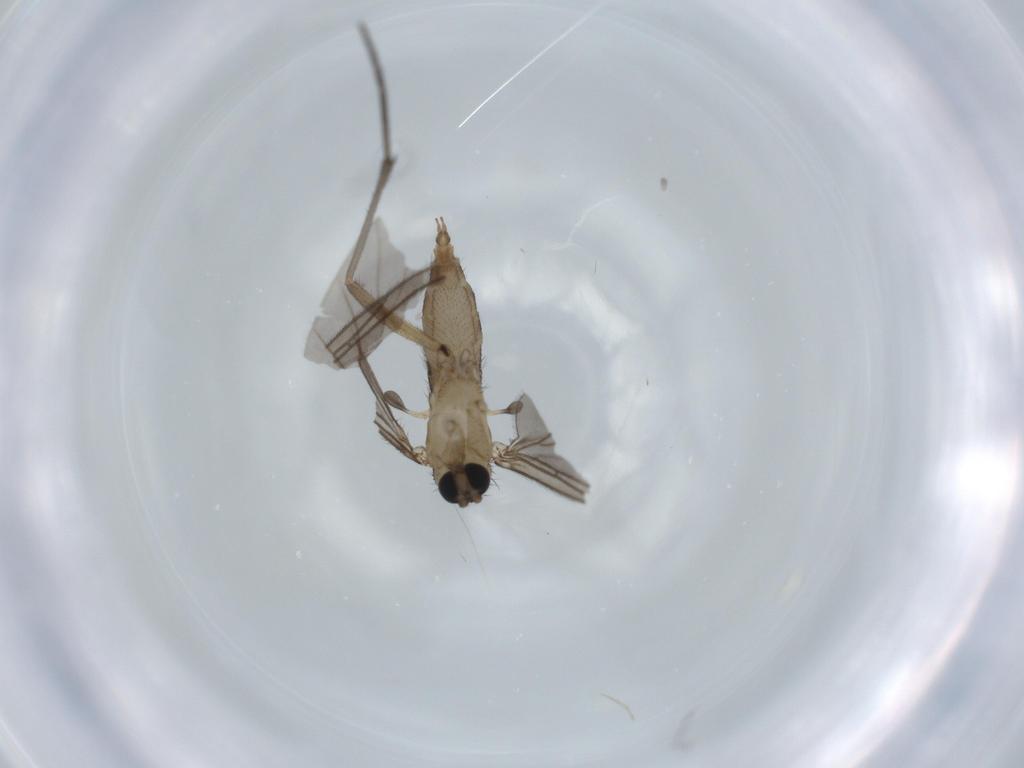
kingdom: Animalia
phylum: Arthropoda
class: Insecta
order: Diptera
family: Sciaridae
